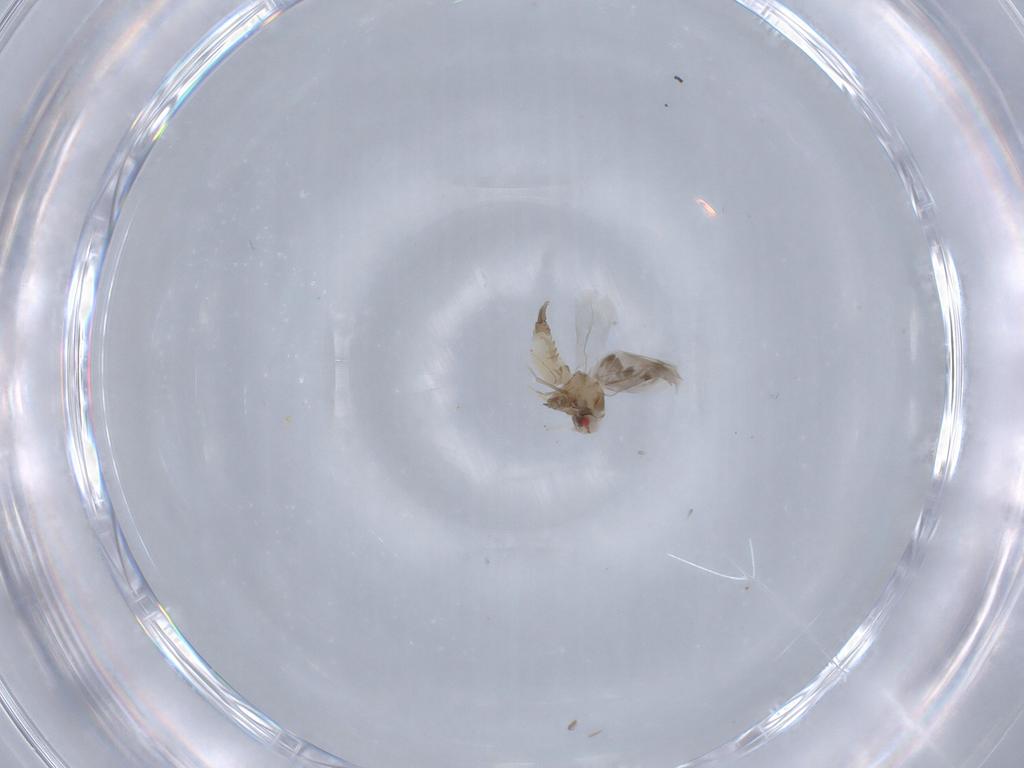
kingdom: Animalia
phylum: Arthropoda
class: Insecta
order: Hemiptera
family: Aleyrodidae
